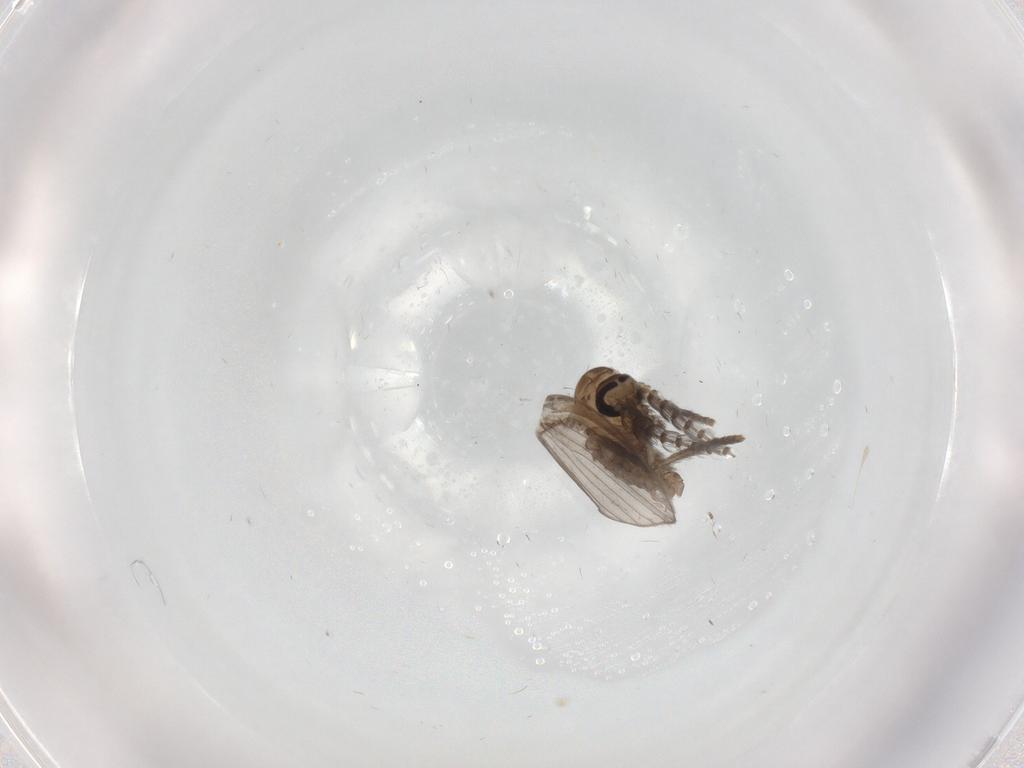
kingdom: Animalia
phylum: Arthropoda
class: Insecta
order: Diptera
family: Psychodidae
